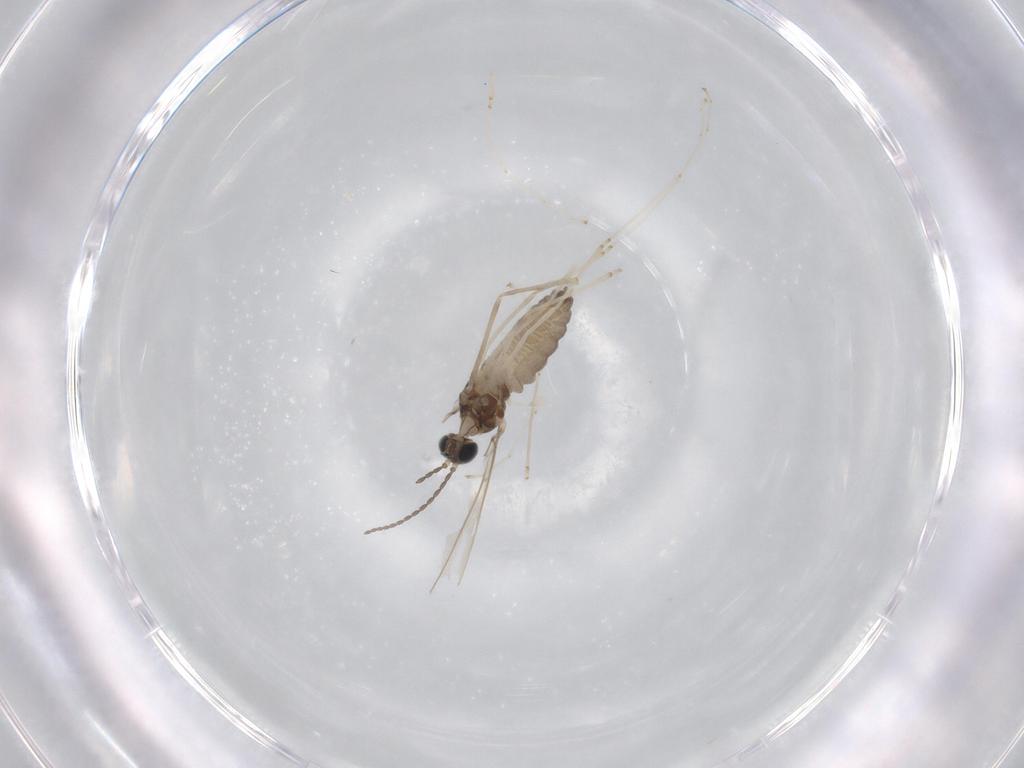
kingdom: Animalia
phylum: Arthropoda
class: Insecta
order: Diptera
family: Cecidomyiidae
